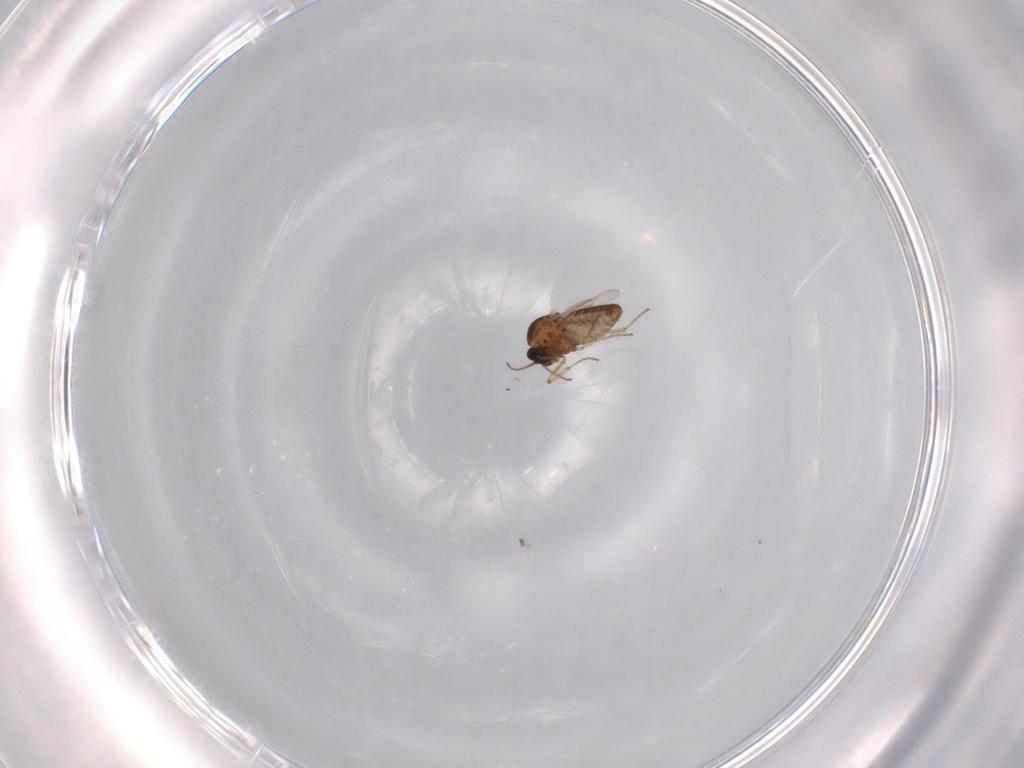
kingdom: Animalia
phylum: Arthropoda
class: Insecta
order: Diptera
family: Ceratopogonidae
